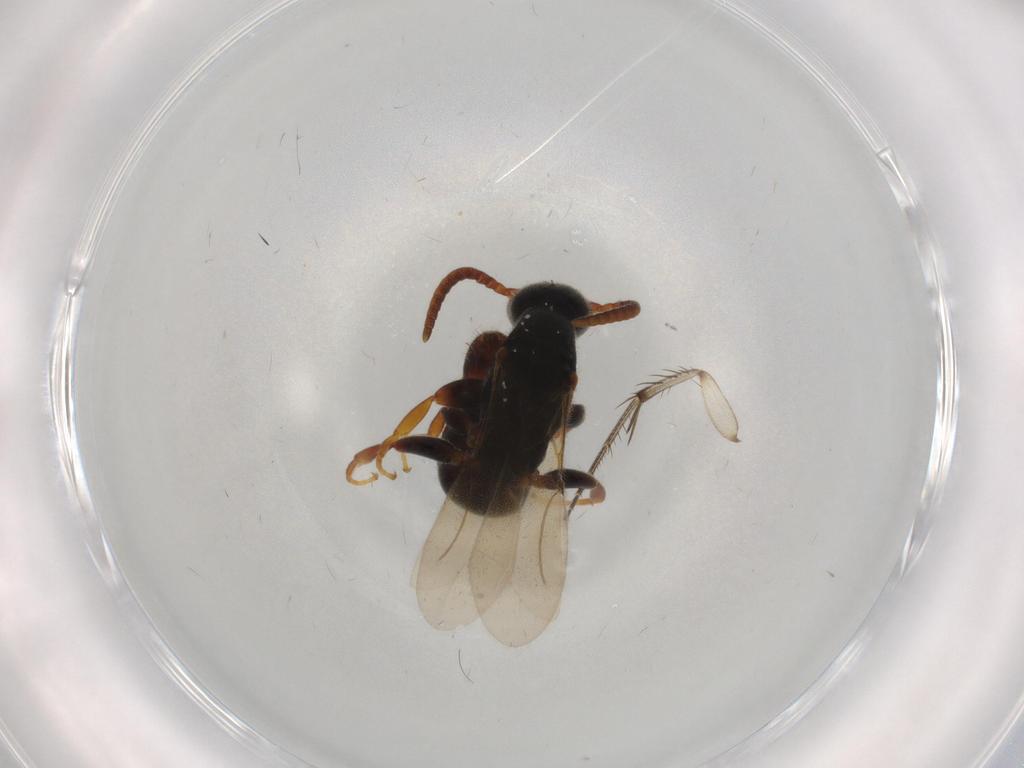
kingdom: Animalia
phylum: Arthropoda
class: Insecta
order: Hymenoptera
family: Bethylidae
